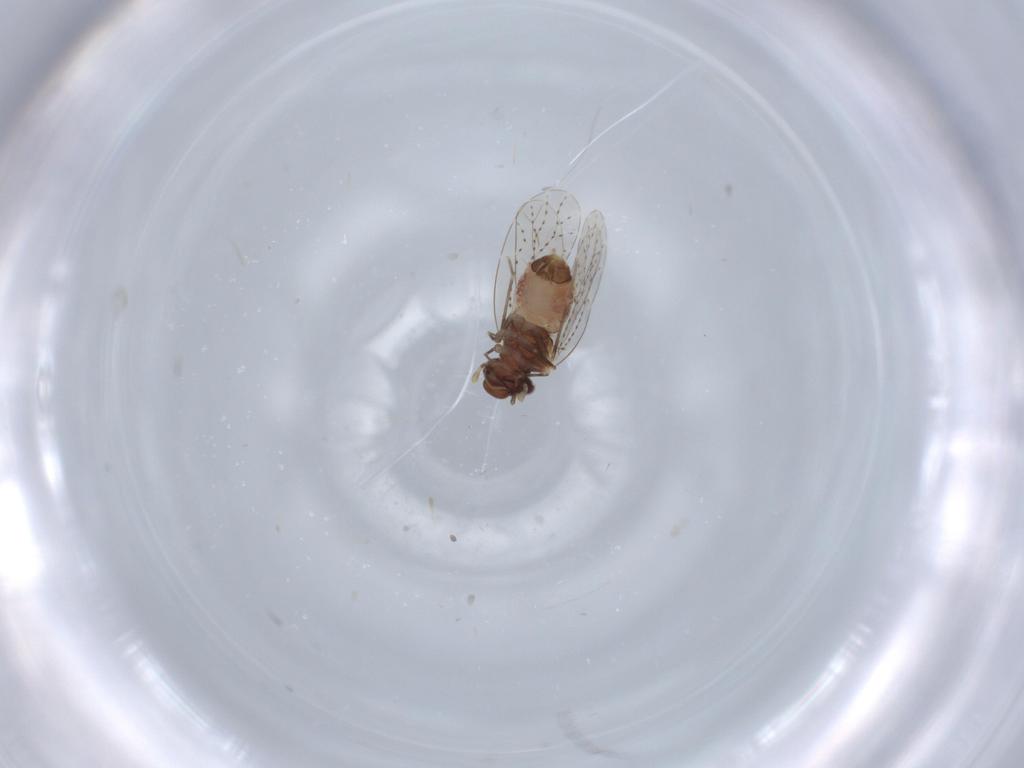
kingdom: Animalia
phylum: Arthropoda
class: Insecta
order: Psocodea
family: Musapsocidae
